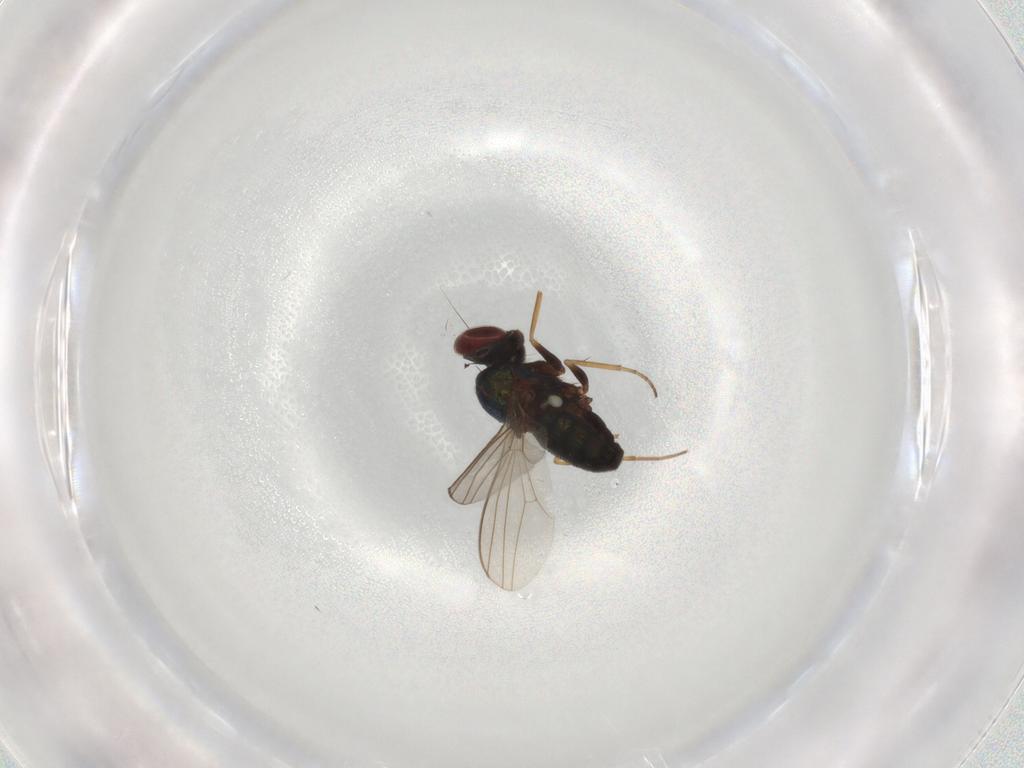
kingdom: Animalia
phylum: Arthropoda
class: Insecta
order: Diptera
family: Dolichopodidae
